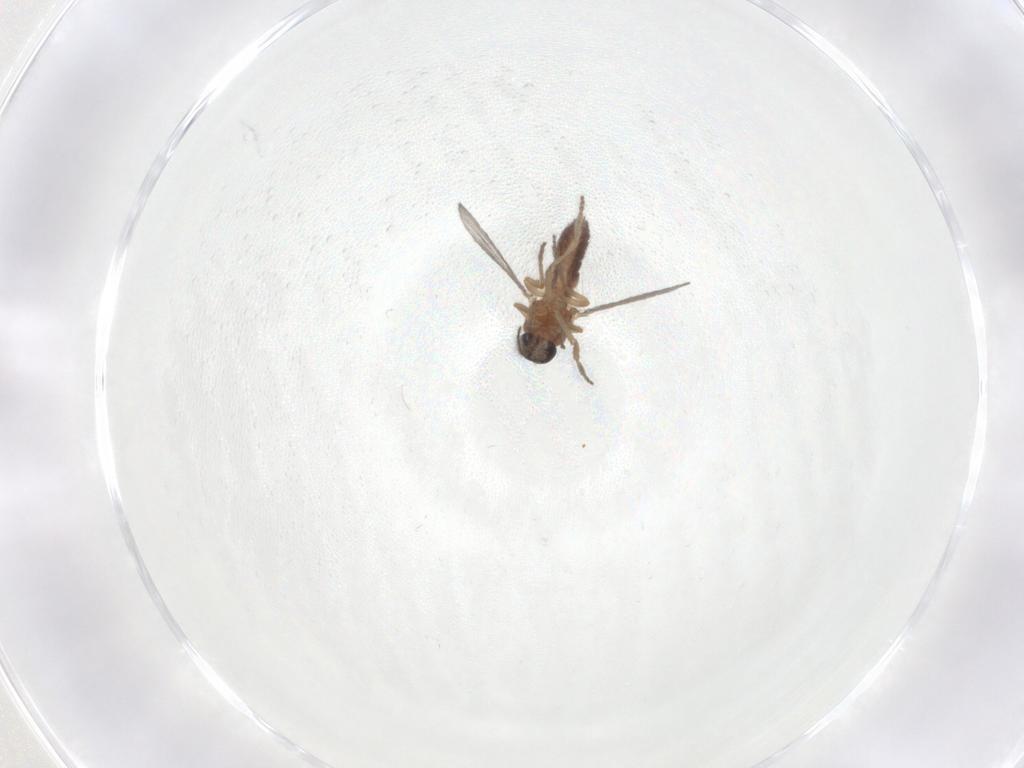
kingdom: Animalia
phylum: Arthropoda
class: Insecta
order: Diptera
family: Ceratopogonidae
